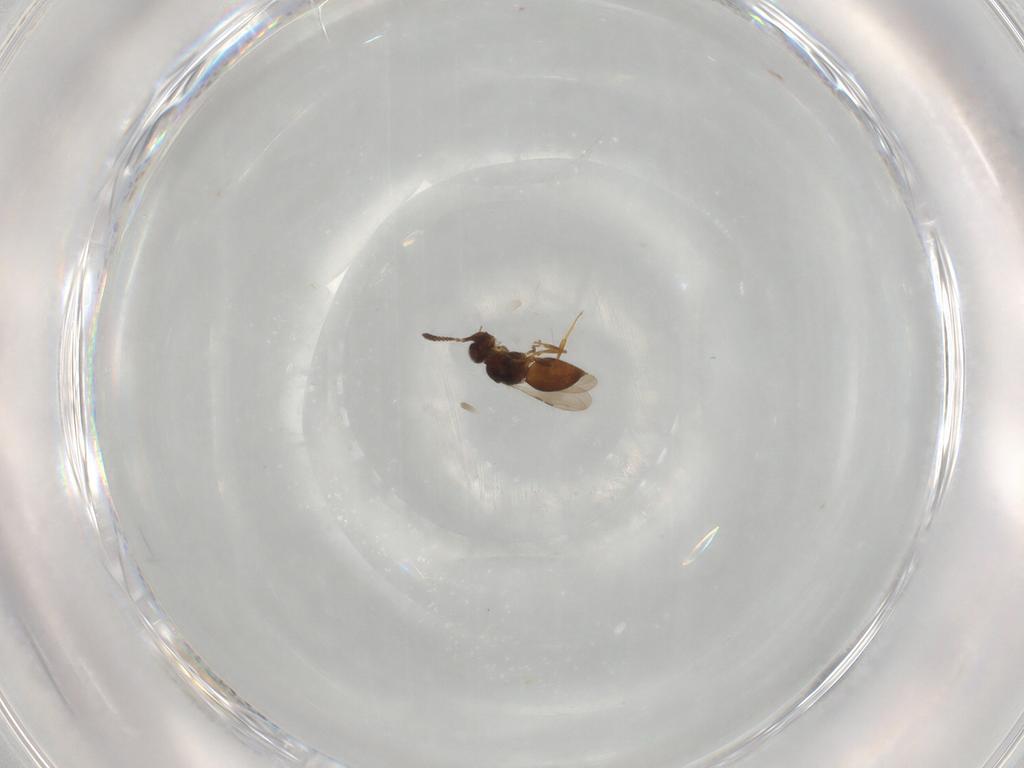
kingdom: Animalia
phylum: Arthropoda
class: Insecta
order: Hymenoptera
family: Ceraphronidae
